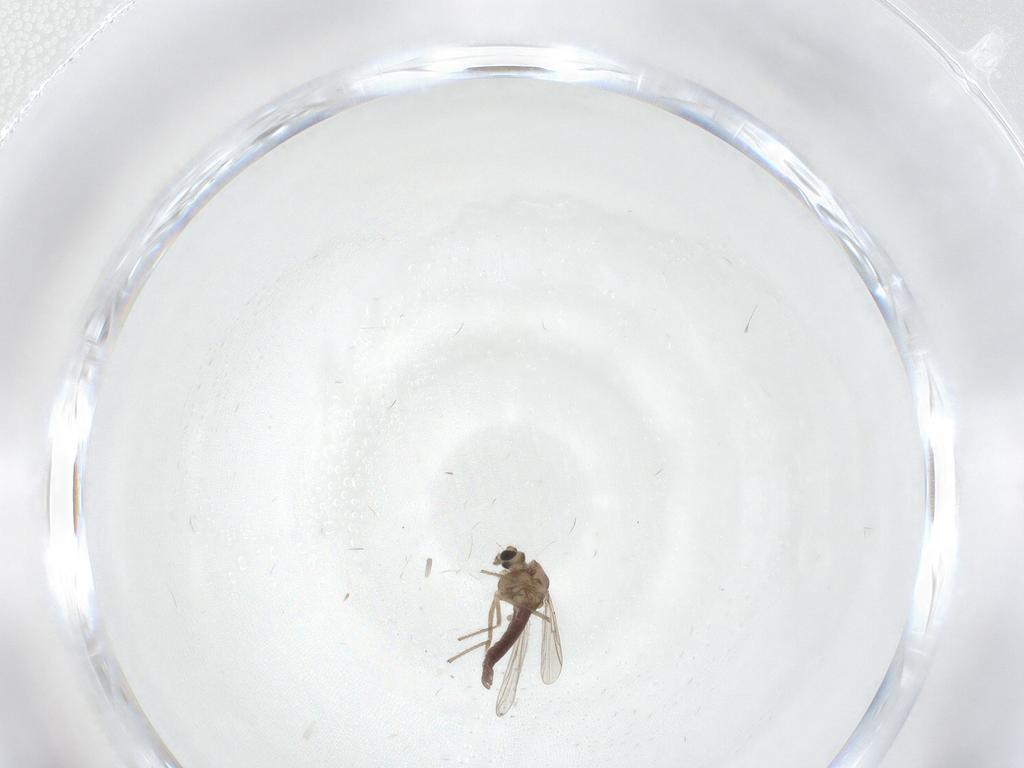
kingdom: Animalia
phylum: Arthropoda
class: Insecta
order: Diptera
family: Chironomidae
